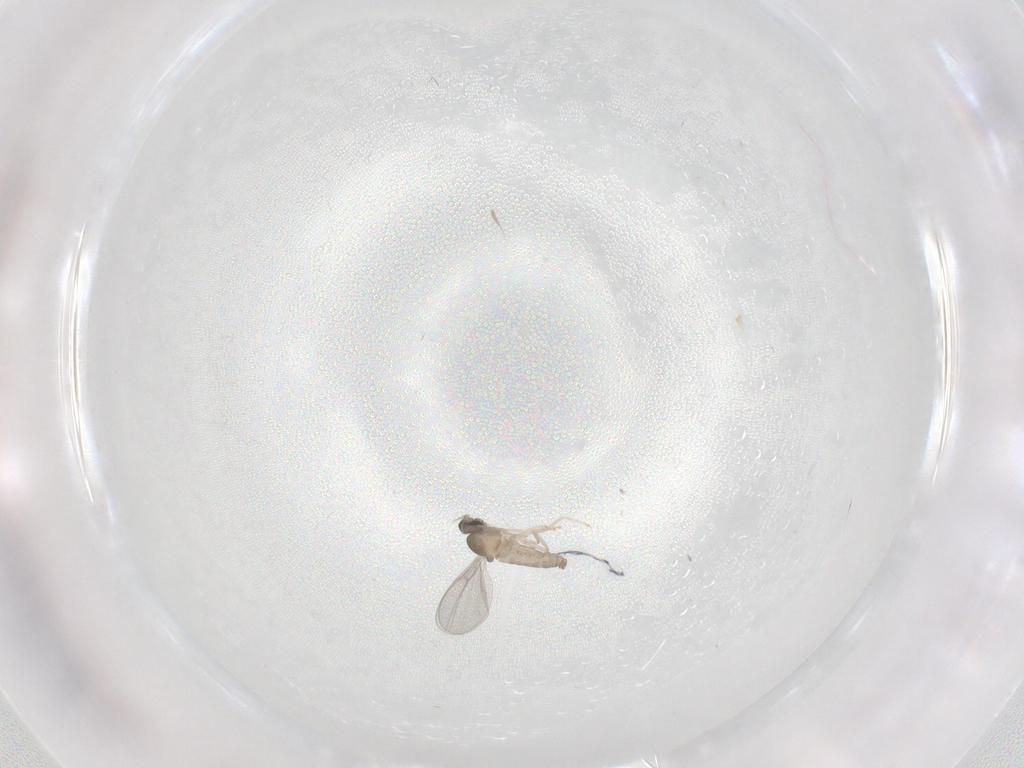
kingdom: Animalia
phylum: Arthropoda
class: Insecta
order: Diptera
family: Cecidomyiidae
